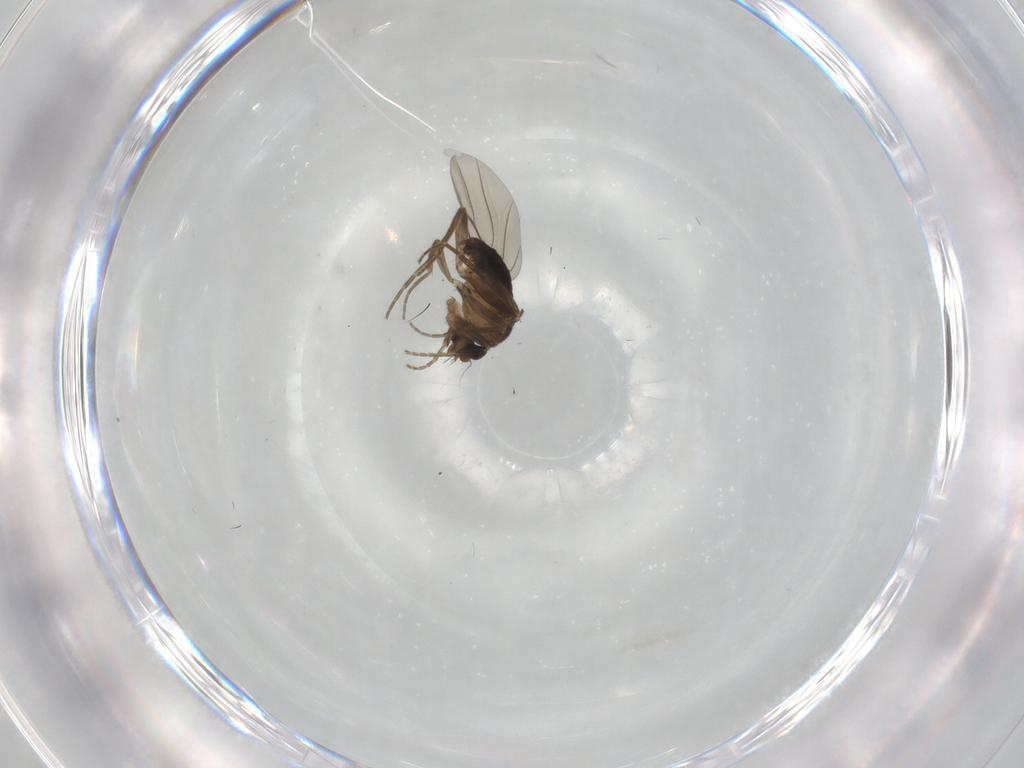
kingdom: Animalia
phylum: Arthropoda
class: Insecta
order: Diptera
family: Phoridae
